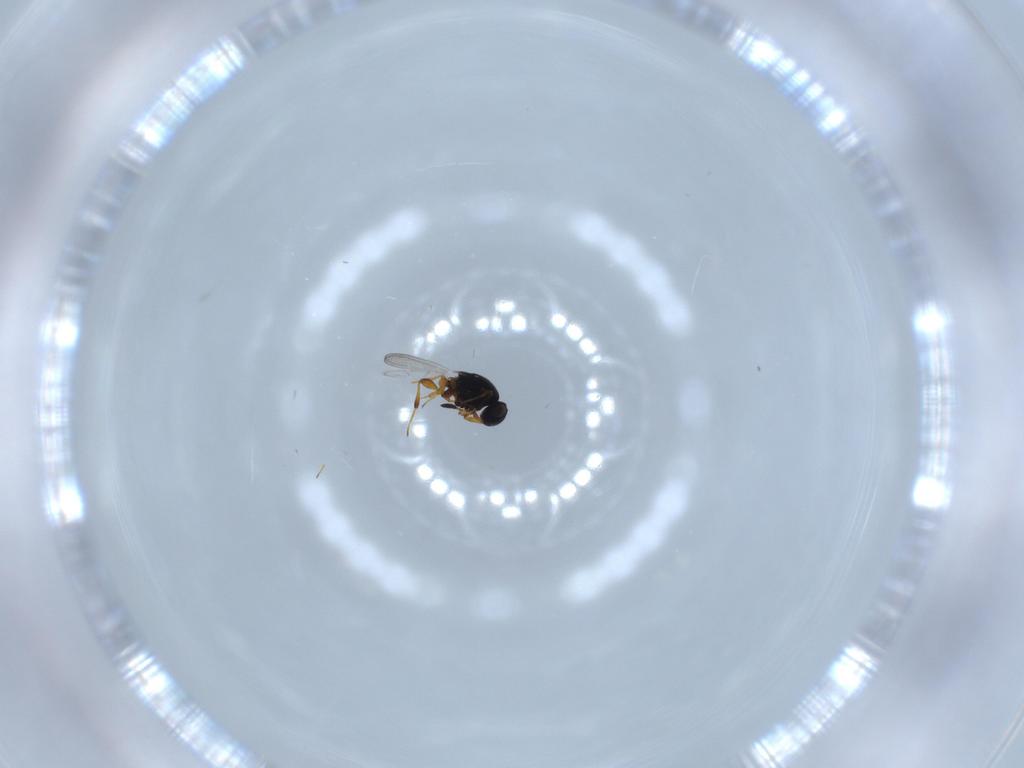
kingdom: Animalia
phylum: Arthropoda
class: Insecta
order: Hymenoptera
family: Platygastridae
